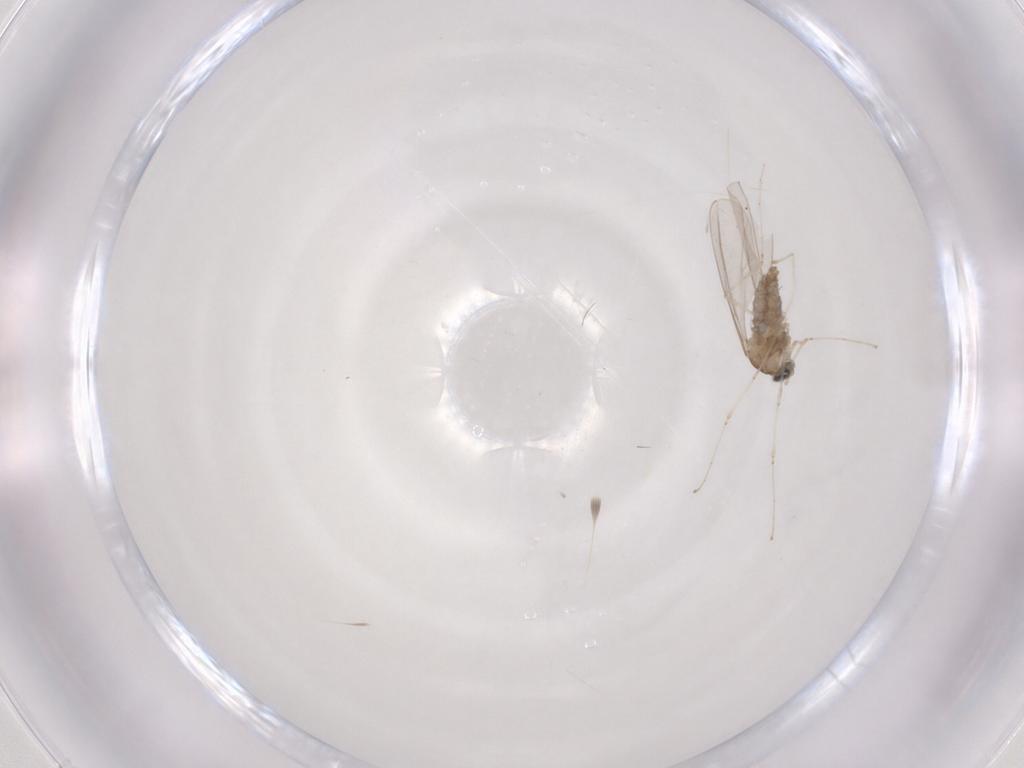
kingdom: Animalia
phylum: Arthropoda
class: Insecta
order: Diptera
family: Cecidomyiidae
